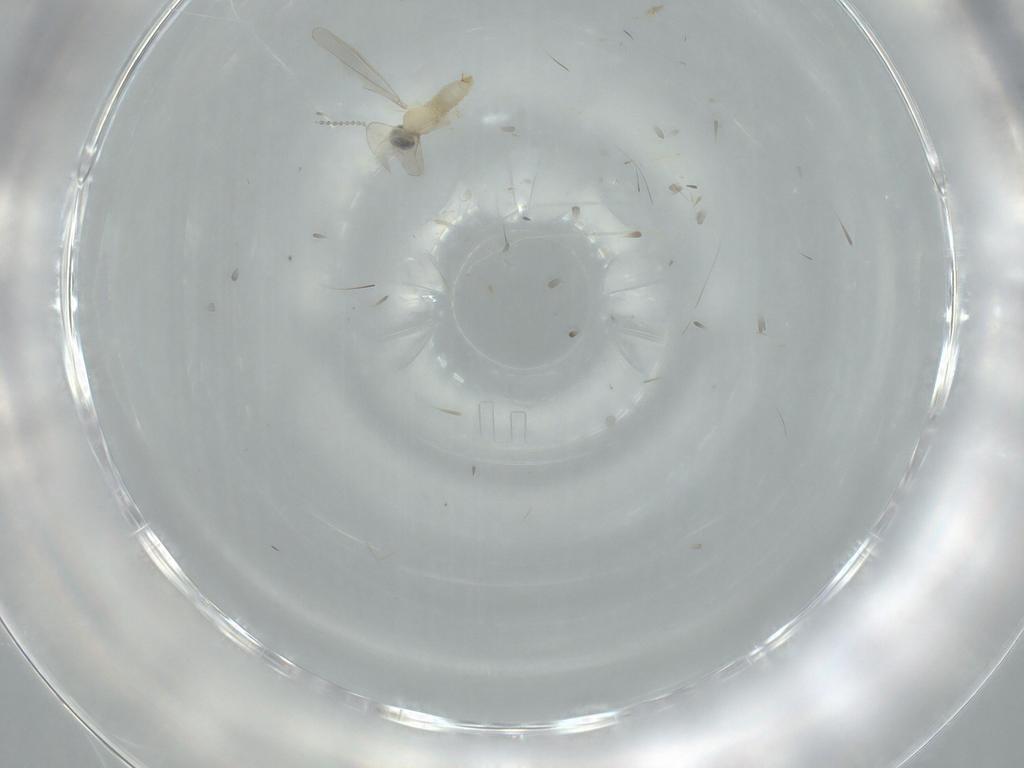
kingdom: Animalia
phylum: Arthropoda
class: Insecta
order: Diptera
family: Cecidomyiidae
